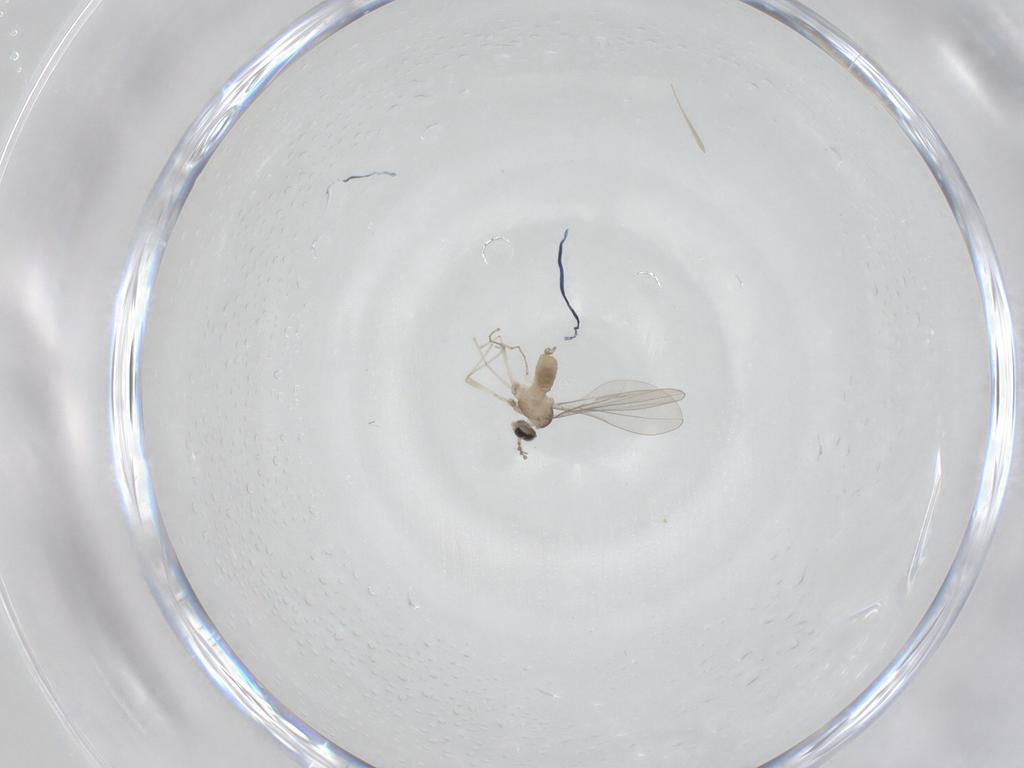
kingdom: Animalia
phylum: Arthropoda
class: Insecta
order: Diptera
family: Cecidomyiidae
